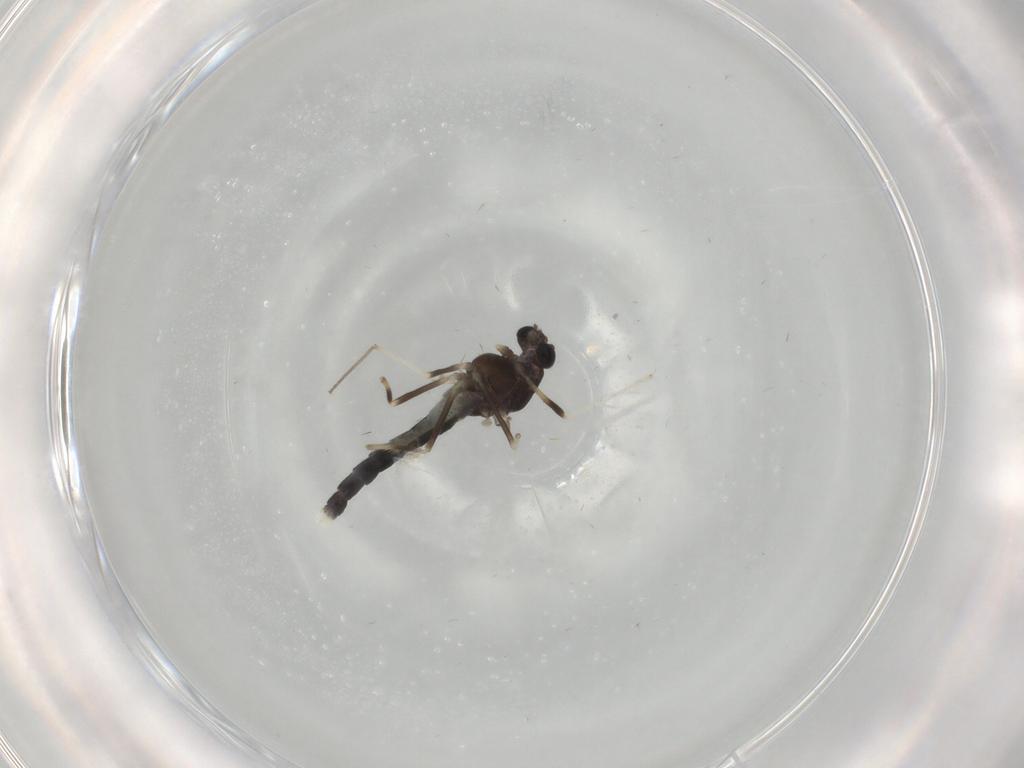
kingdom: Animalia
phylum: Arthropoda
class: Insecta
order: Diptera
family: Chironomidae
